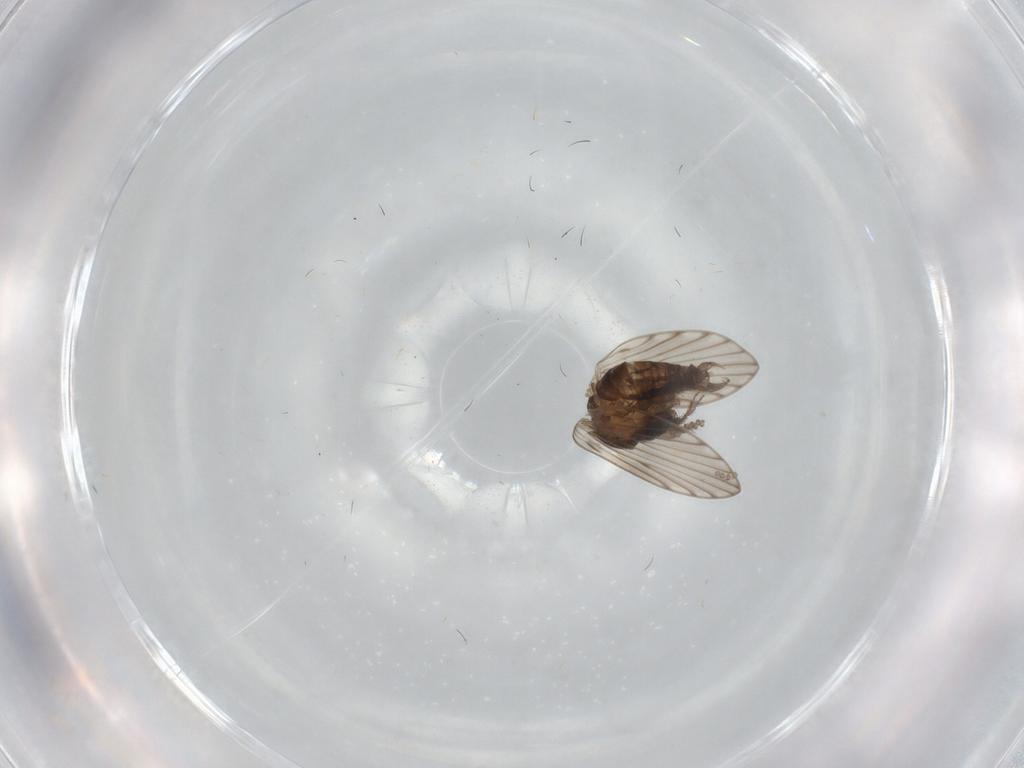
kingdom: Animalia
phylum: Arthropoda
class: Insecta
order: Diptera
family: Psychodidae
